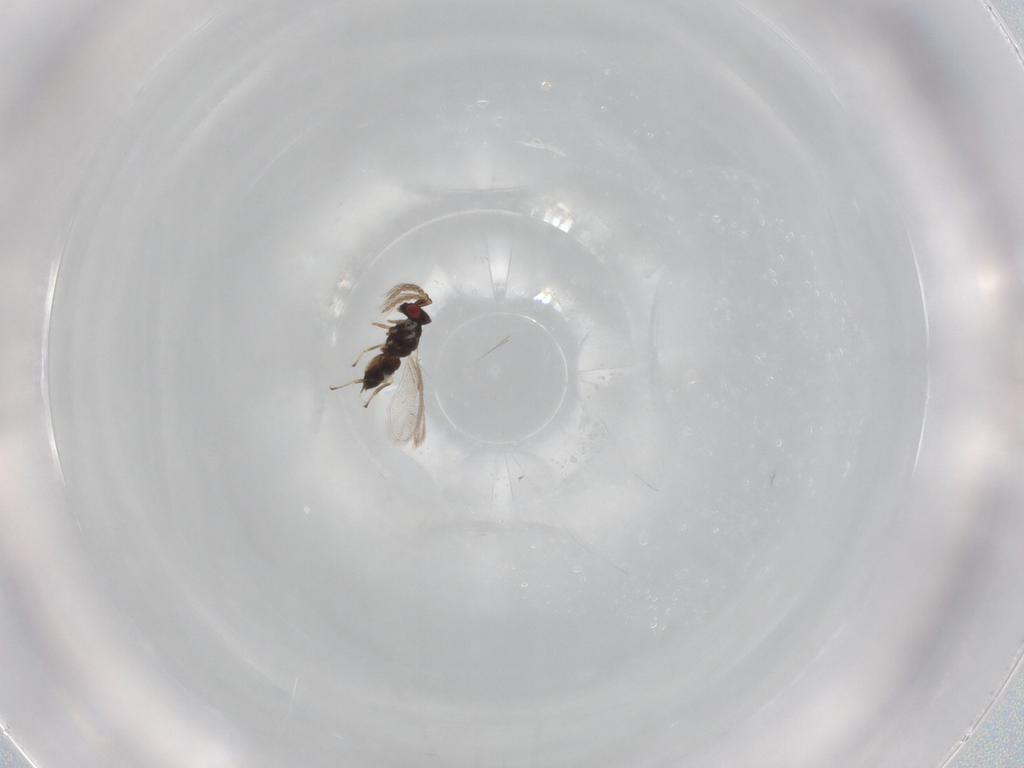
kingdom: Animalia
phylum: Arthropoda
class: Insecta
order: Hymenoptera
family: Eulophidae
